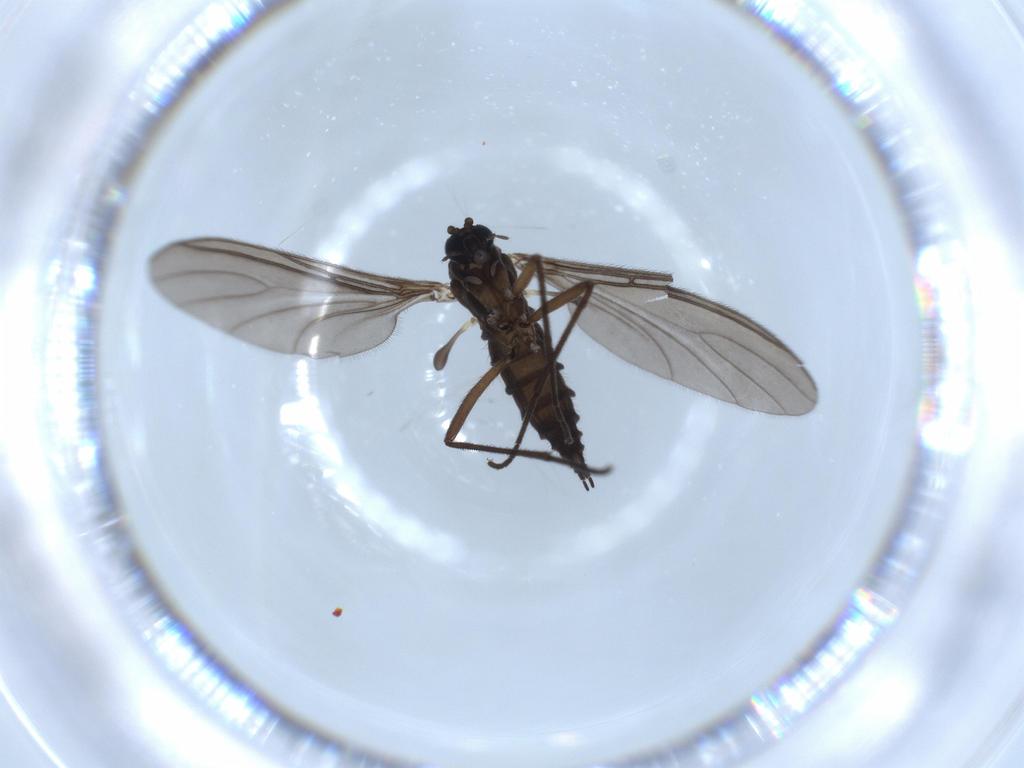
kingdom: Animalia
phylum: Arthropoda
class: Insecta
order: Diptera
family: Sciaridae
